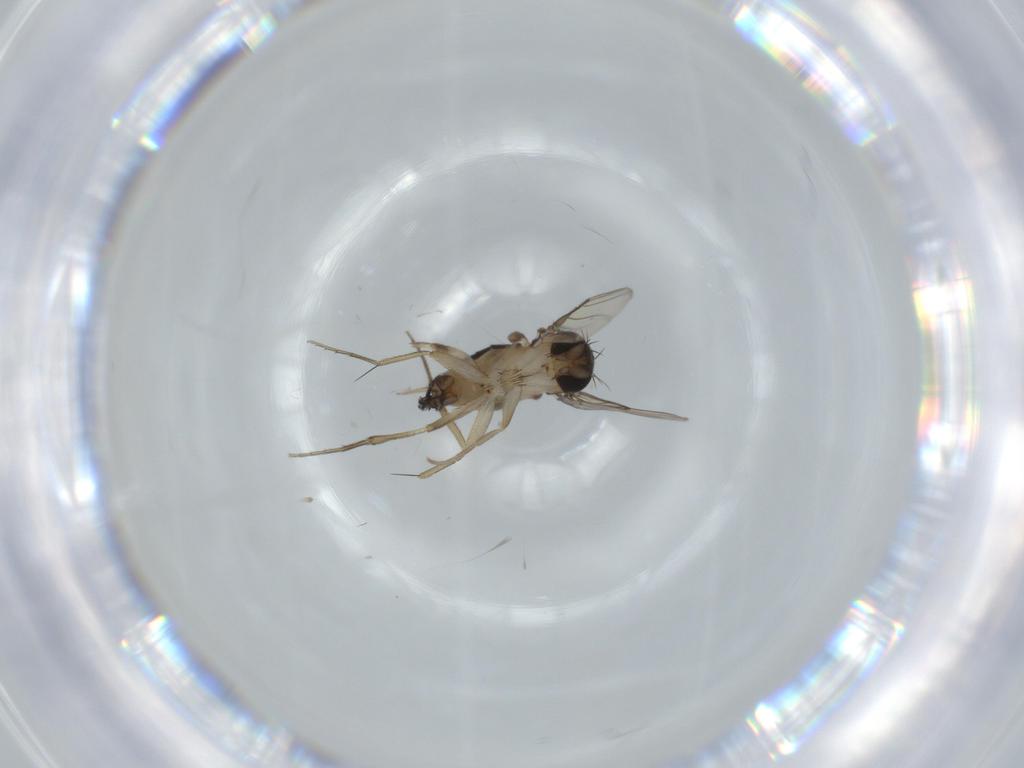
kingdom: Animalia
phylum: Arthropoda
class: Insecta
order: Diptera
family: Phoridae
